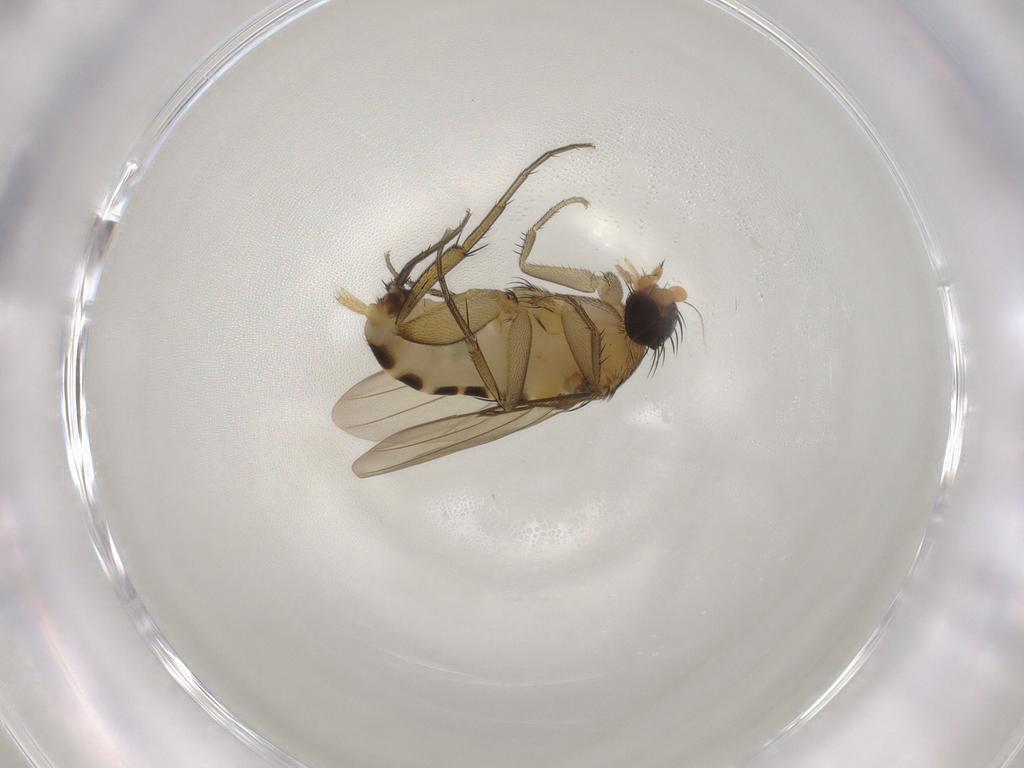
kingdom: Animalia
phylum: Arthropoda
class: Insecta
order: Diptera
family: Phoridae
